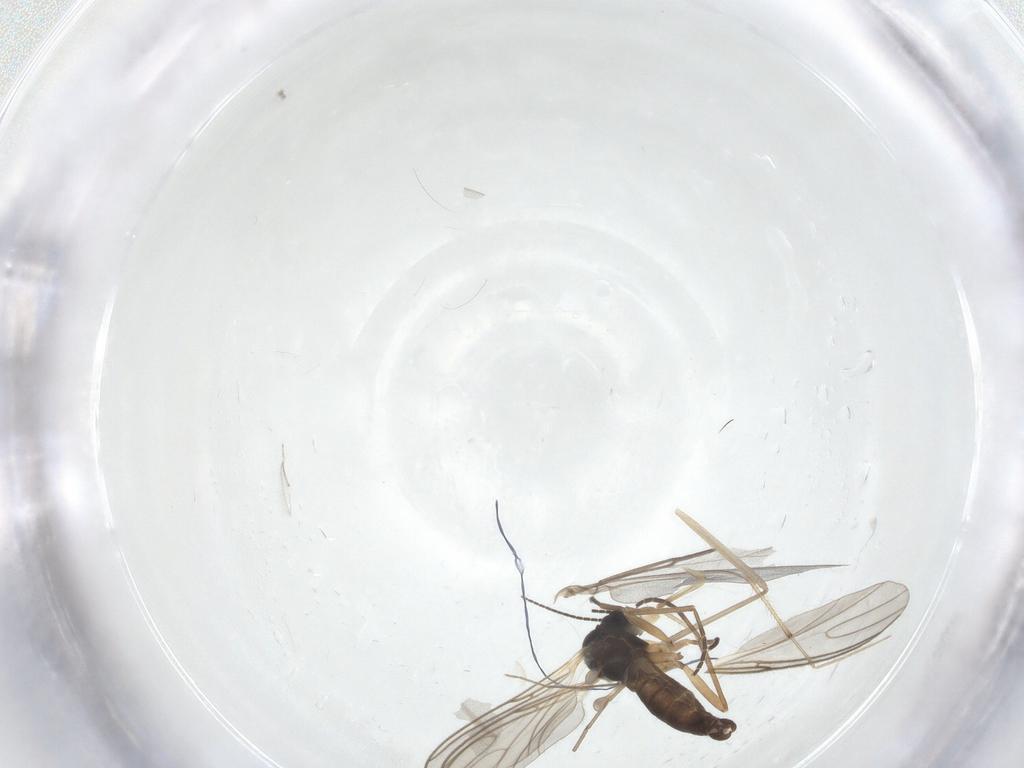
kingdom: Animalia
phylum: Arthropoda
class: Insecta
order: Diptera
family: Cecidomyiidae
